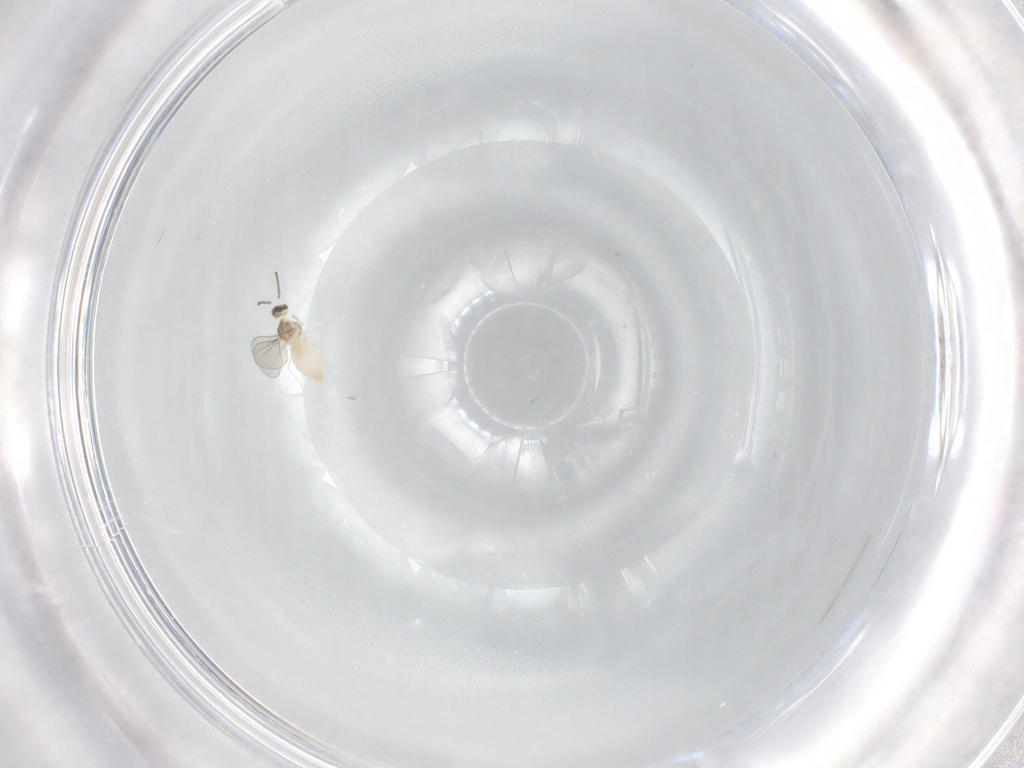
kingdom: Animalia
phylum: Arthropoda
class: Insecta
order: Diptera
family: Cecidomyiidae
